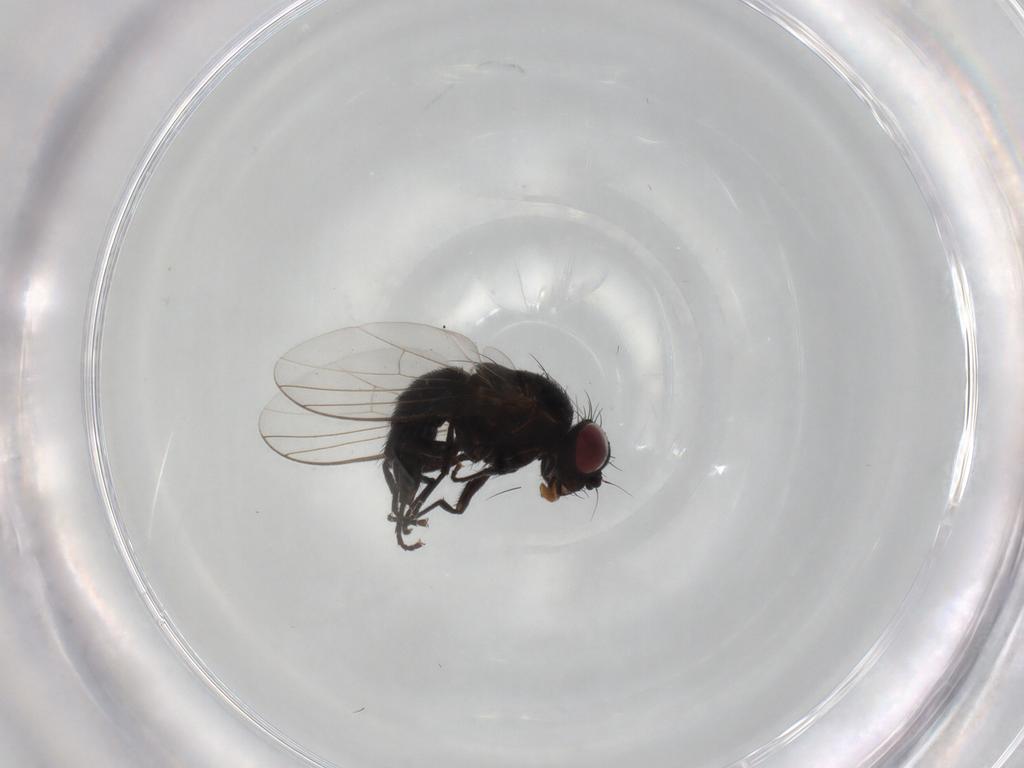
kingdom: Animalia
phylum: Arthropoda
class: Insecta
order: Diptera
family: Agromyzidae
